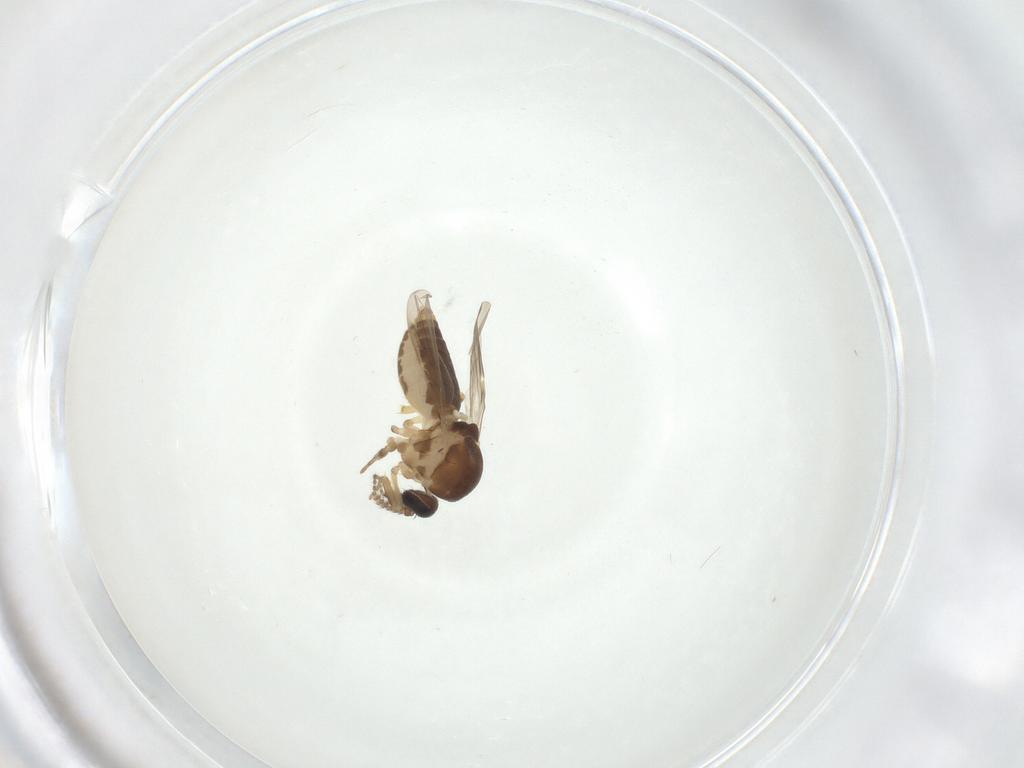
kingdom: Animalia
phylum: Arthropoda
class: Insecta
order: Diptera
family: Ceratopogonidae
